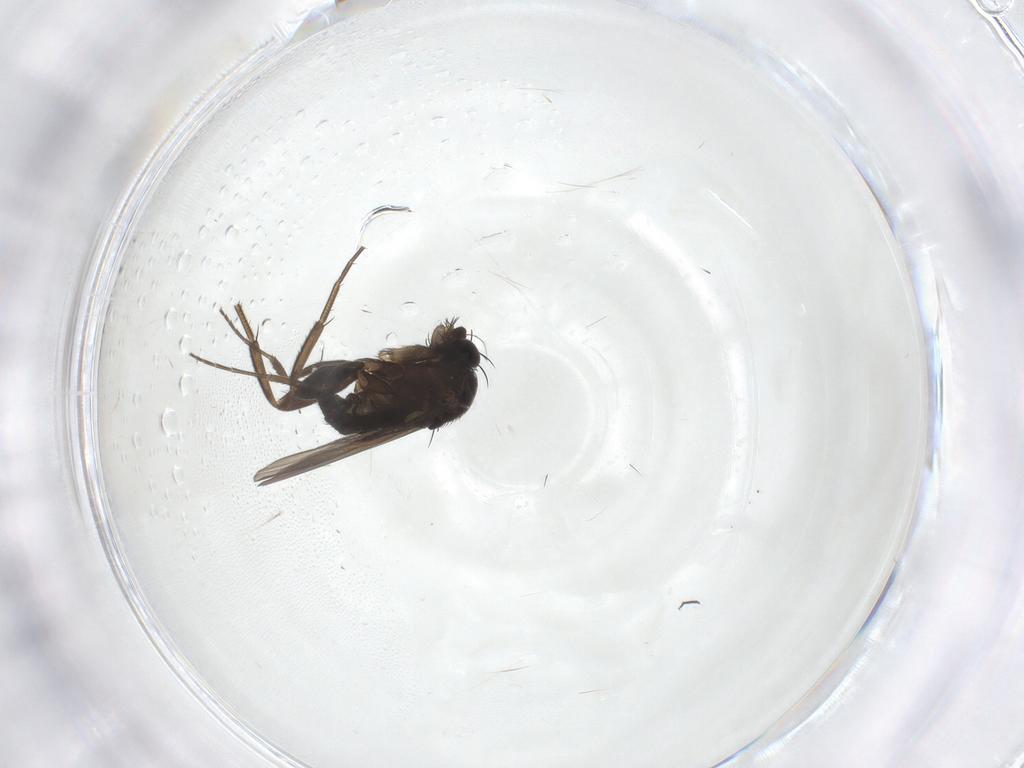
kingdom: Animalia
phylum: Arthropoda
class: Insecta
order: Diptera
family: Phoridae
